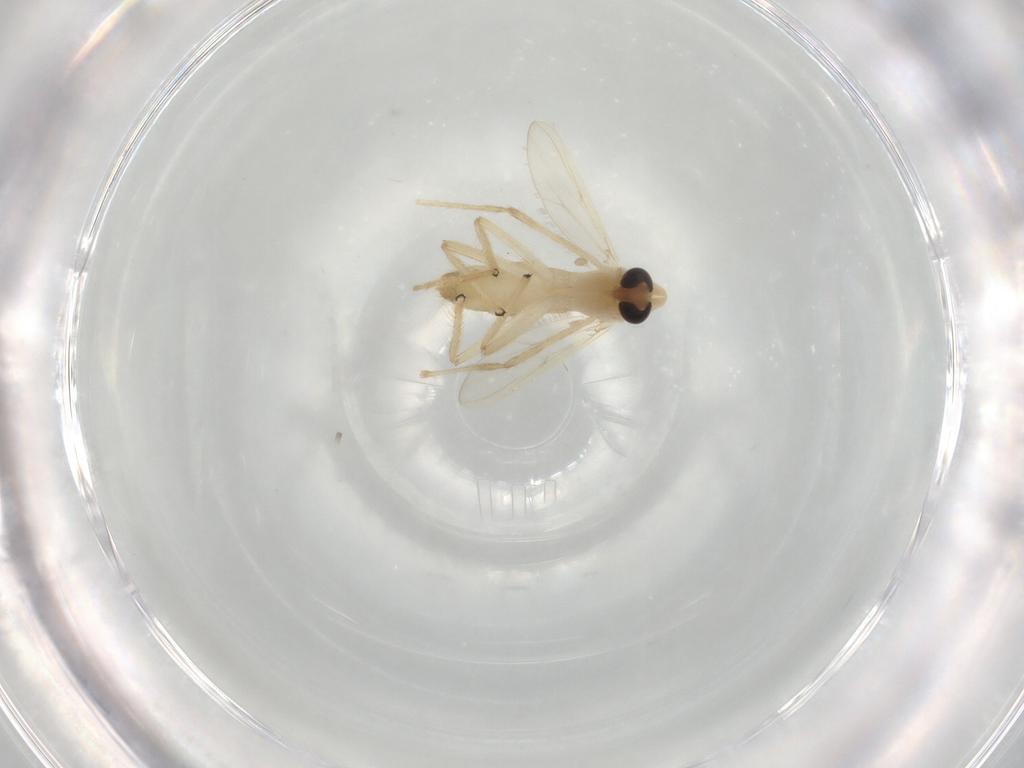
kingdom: Animalia
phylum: Arthropoda
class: Insecta
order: Diptera
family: Chironomidae
